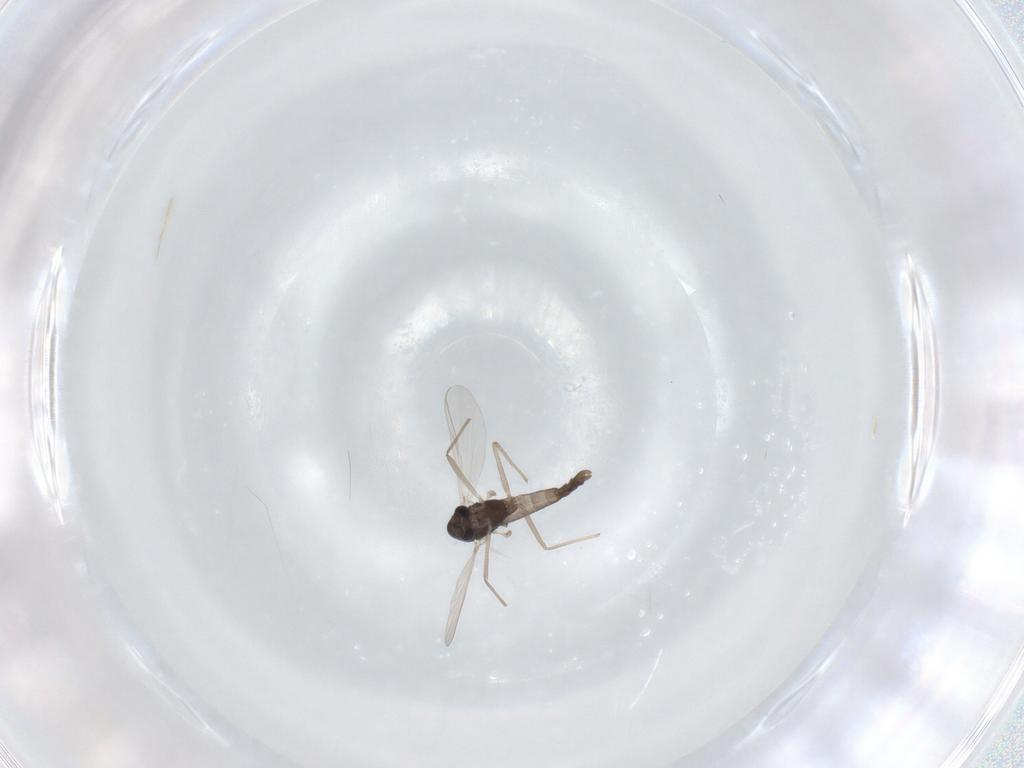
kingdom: Animalia
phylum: Arthropoda
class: Insecta
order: Diptera
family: Chironomidae
